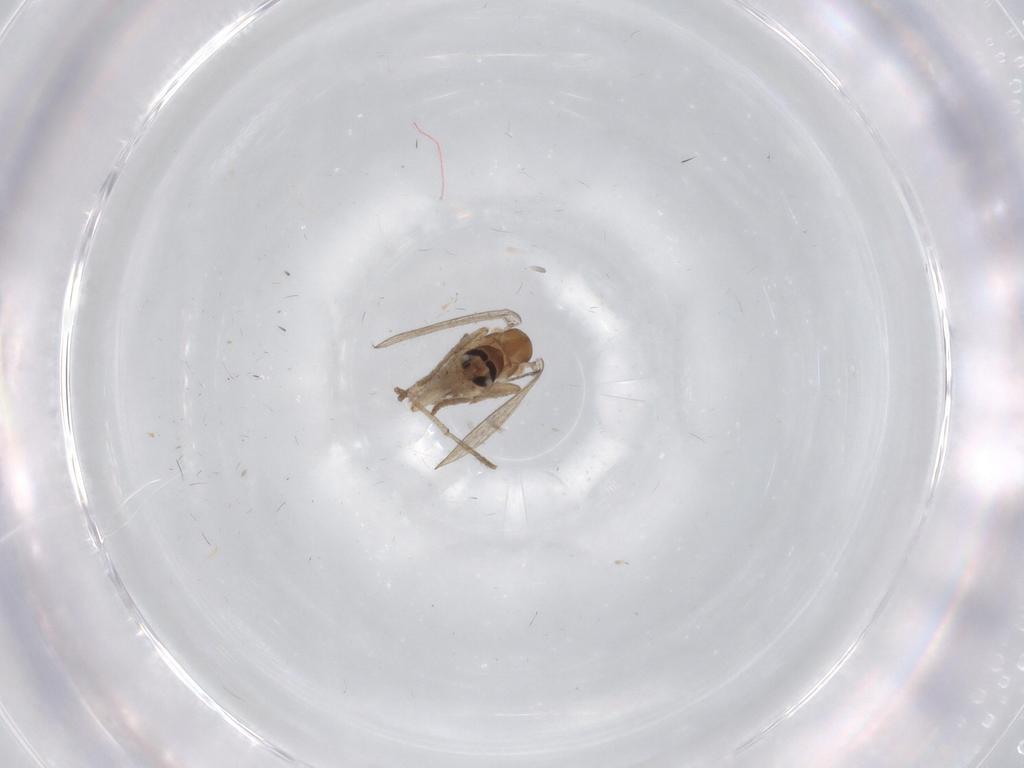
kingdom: Animalia
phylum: Arthropoda
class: Insecta
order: Diptera
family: Psychodidae
